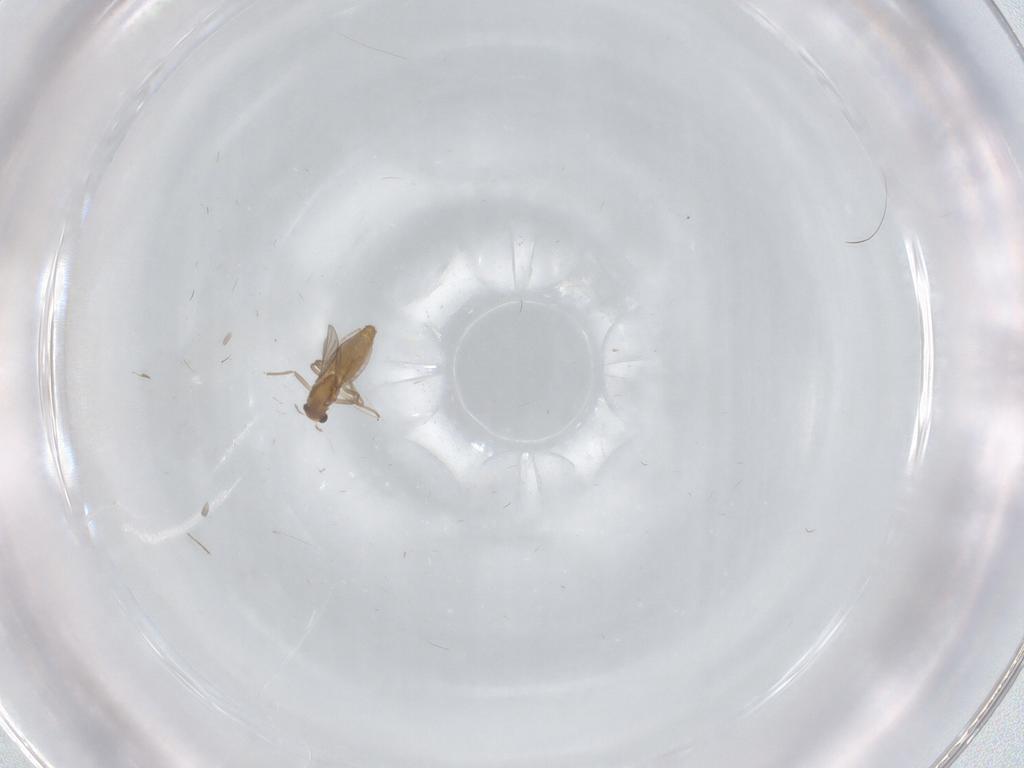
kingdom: Animalia
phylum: Arthropoda
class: Insecta
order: Diptera
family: Chironomidae
